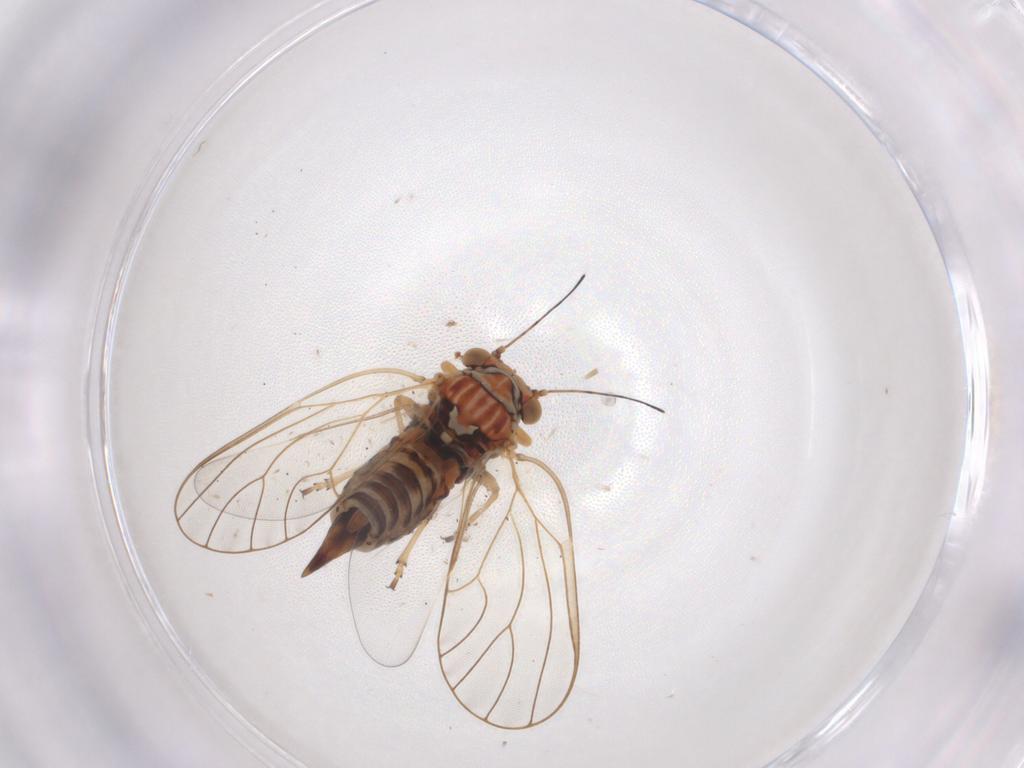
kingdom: Animalia
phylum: Arthropoda
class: Insecta
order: Hemiptera
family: Psyllidae
